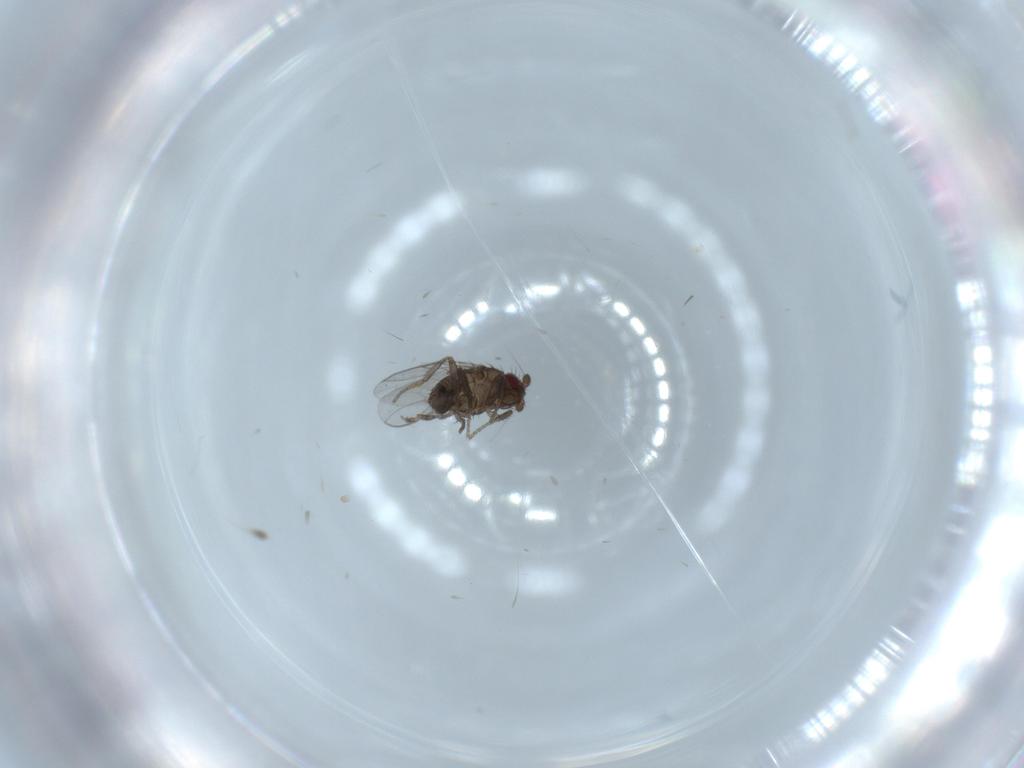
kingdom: Animalia
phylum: Arthropoda
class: Insecta
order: Diptera
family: Sphaeroceridae
